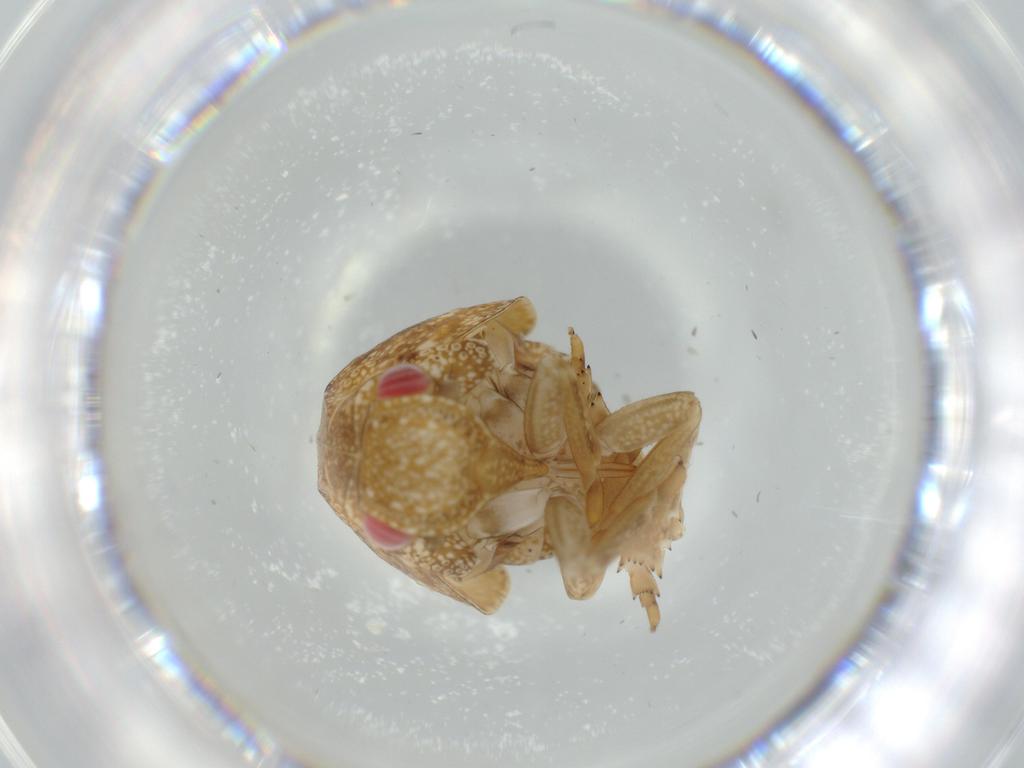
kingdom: Animalia
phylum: Arthropoda
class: Insecta
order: Hemiptera
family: Acanaloniidae
